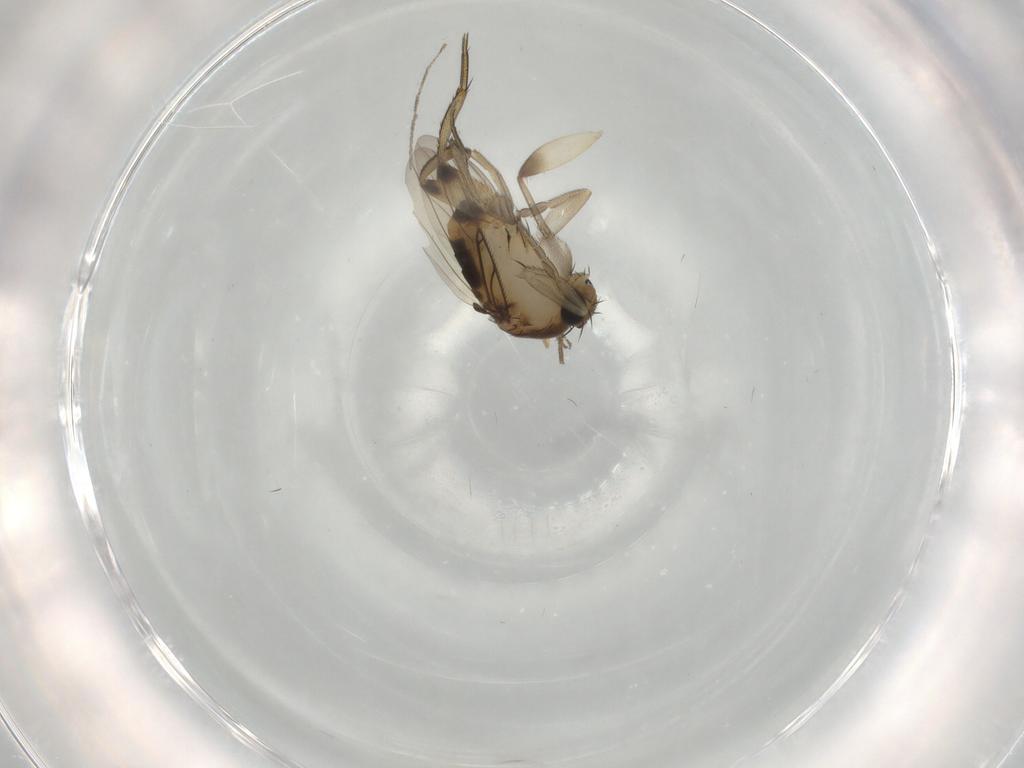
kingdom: Animalia
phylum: Arthropoda
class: Insecta
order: Diptera
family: Phoridae
